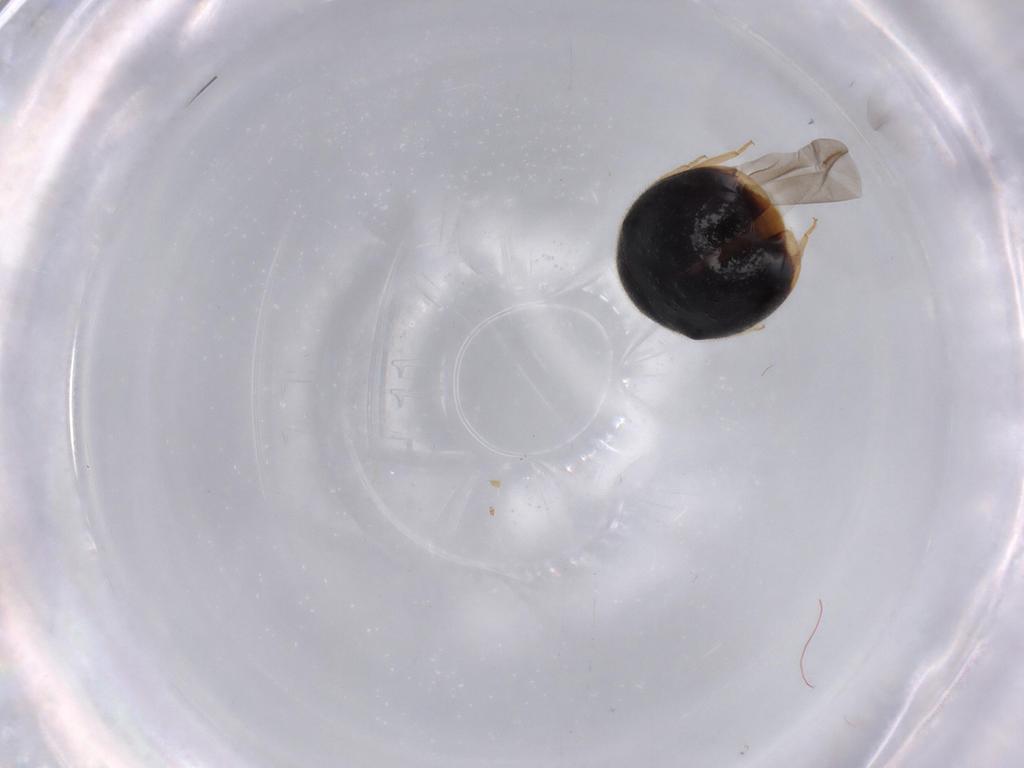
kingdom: Animalia
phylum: Arthropoda
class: Insecta
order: Coleoptera
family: Coccinellidae
